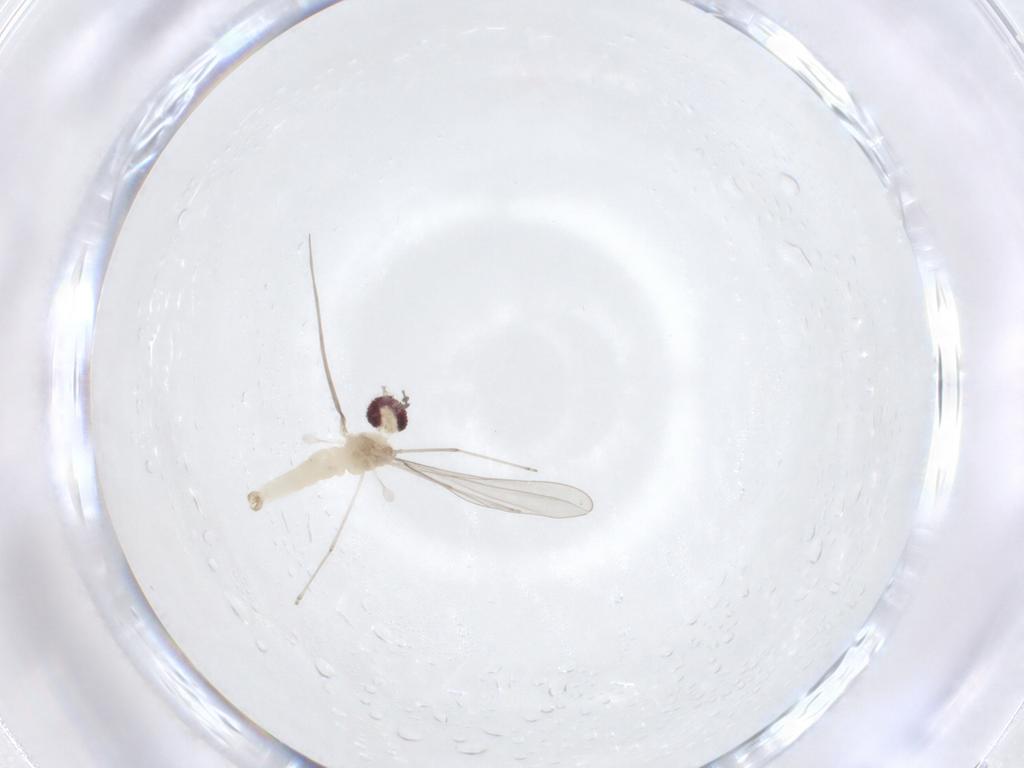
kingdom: Animalia
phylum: Arthropoda
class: Insecta
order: Diptera
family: Cecidomyiidae
